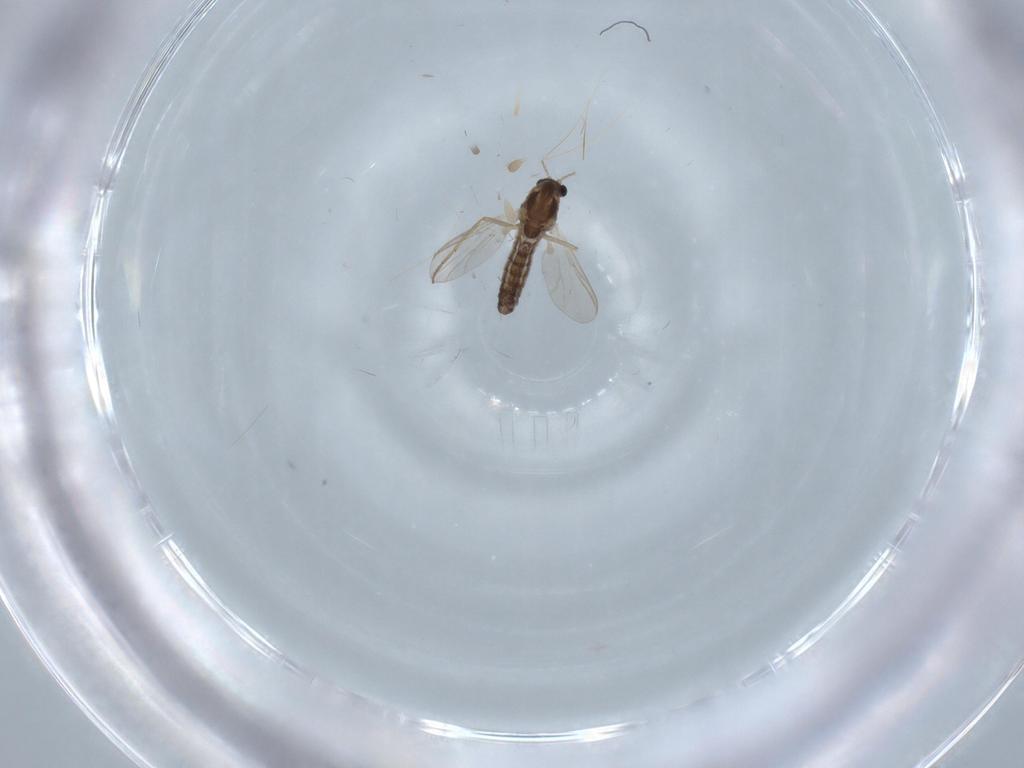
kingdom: Animalia
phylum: Arthropoda
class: Insecta
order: Diptera
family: Chironomidae
